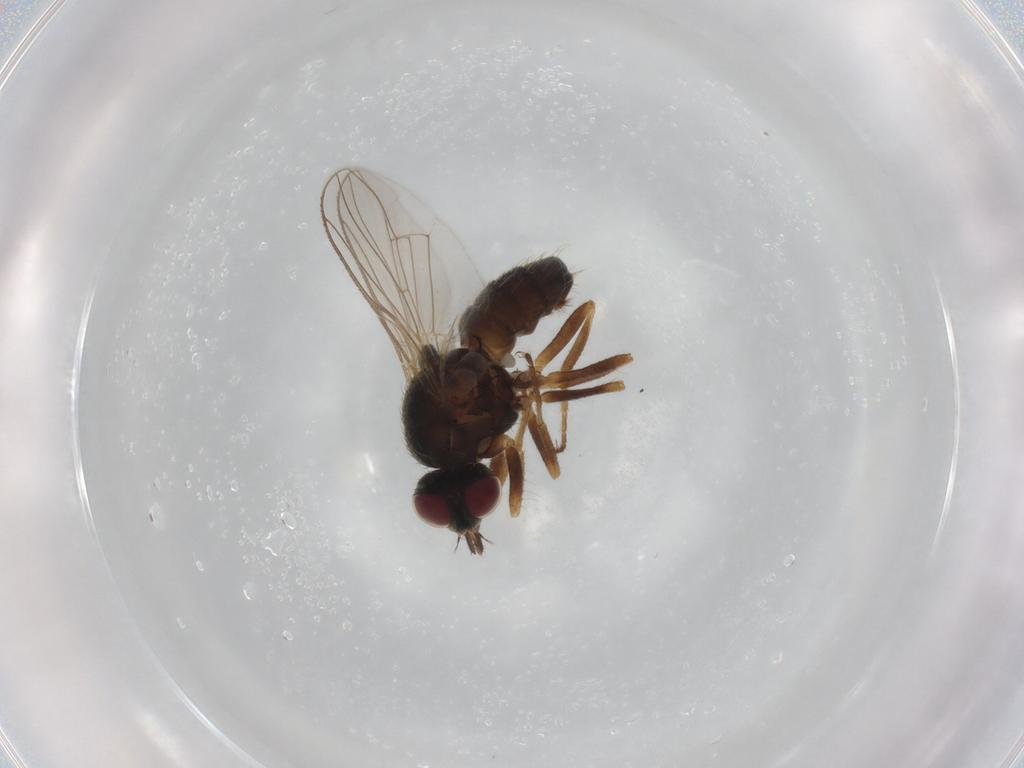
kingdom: Animalia
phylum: Arthropoda
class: Insecta
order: Diptera
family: Muscidae
